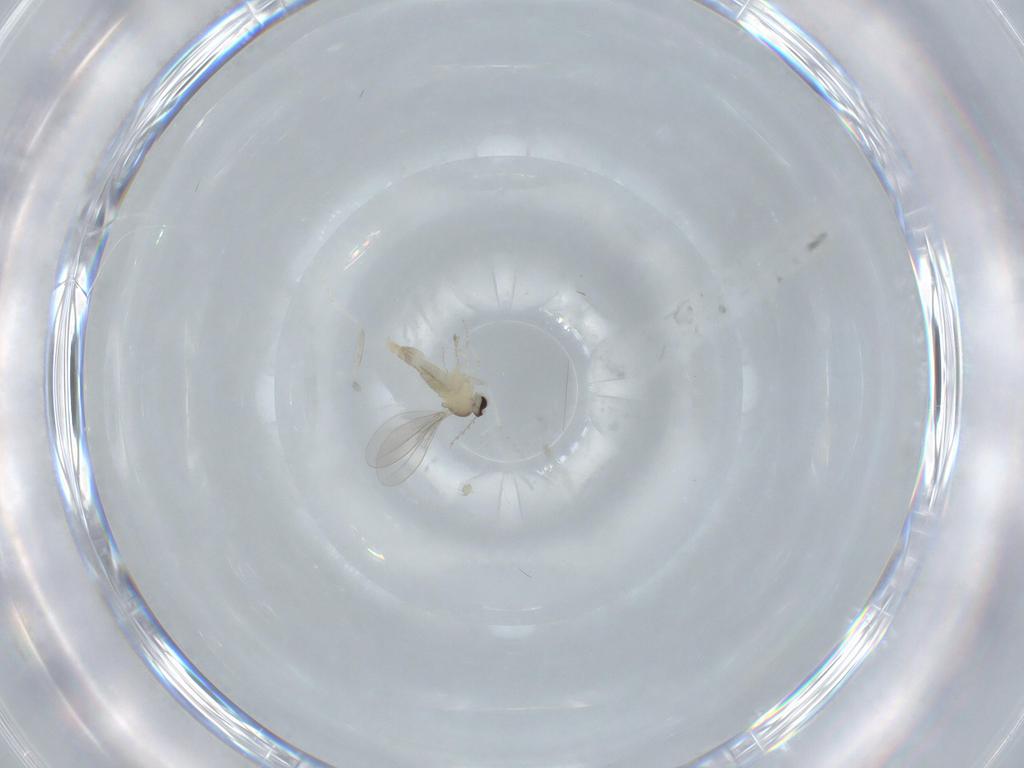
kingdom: Animalia
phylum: Arthropoda
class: Insecta
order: Diptera
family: Cecidomyiidae
